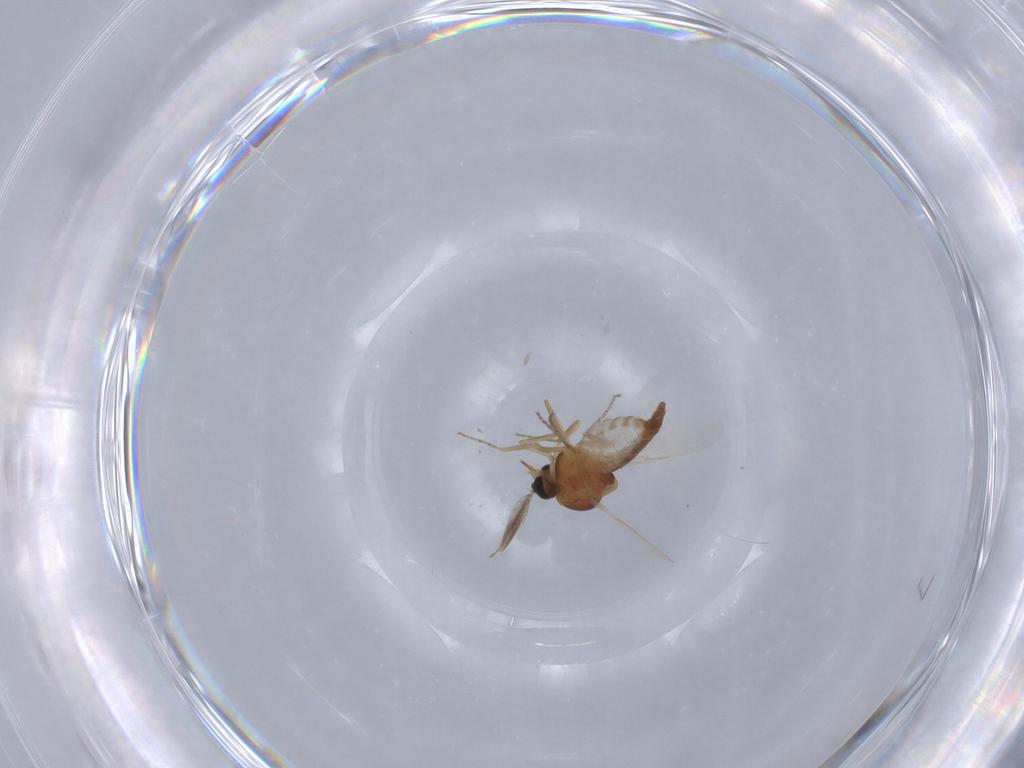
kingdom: Animalia
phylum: Arthropoda
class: Insecta
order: Diptera
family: Ceratopogonidae
